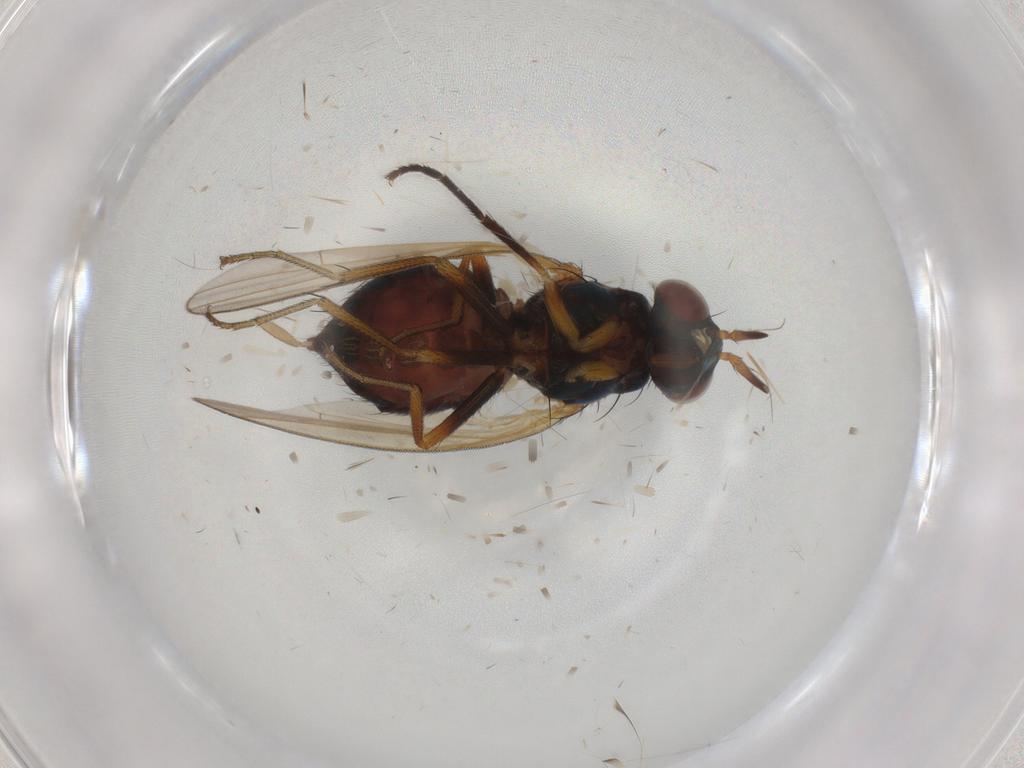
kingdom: Animalia
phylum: Arthropoda
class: Insecta
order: Diptera
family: Lauxaniidae
